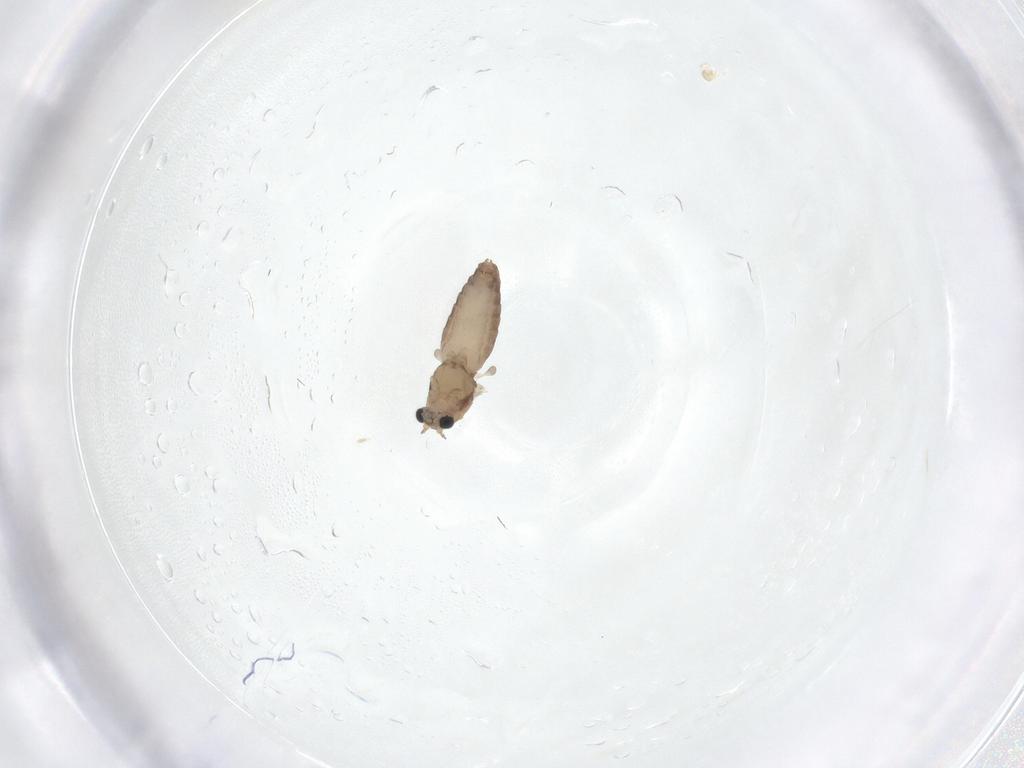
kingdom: Animalia
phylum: Arthropoda
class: Insecta
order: Diptera
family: Chironomidae
